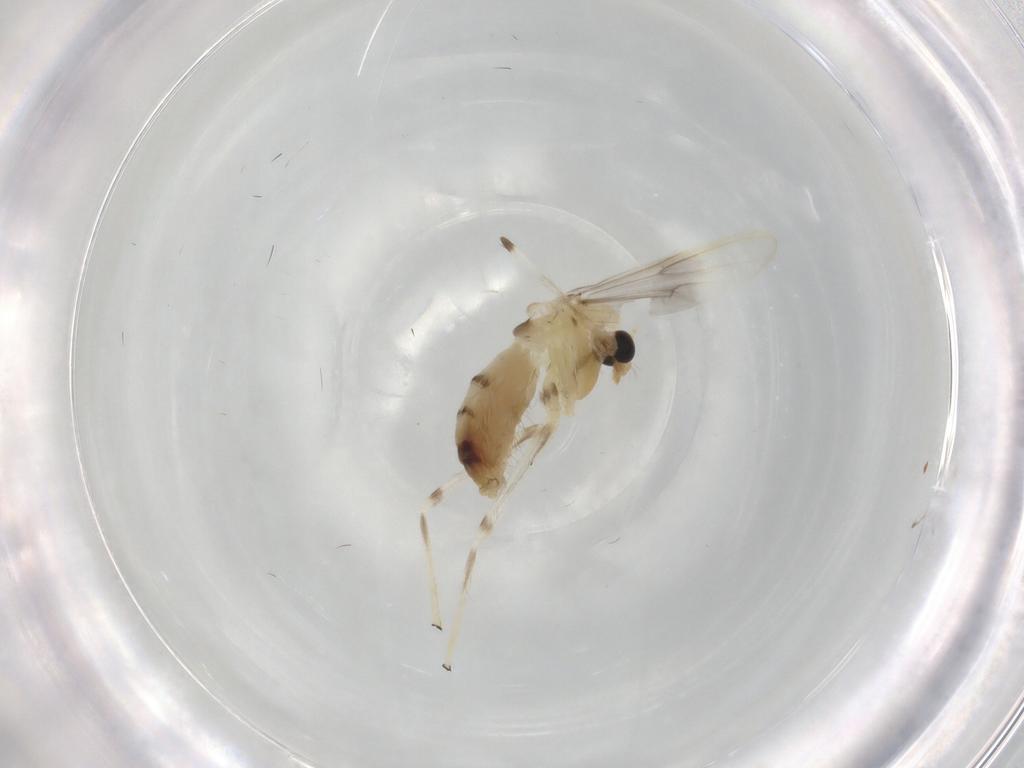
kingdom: Animalia
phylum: Arthropoda
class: Insecta
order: Diptera
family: Chironomidae
